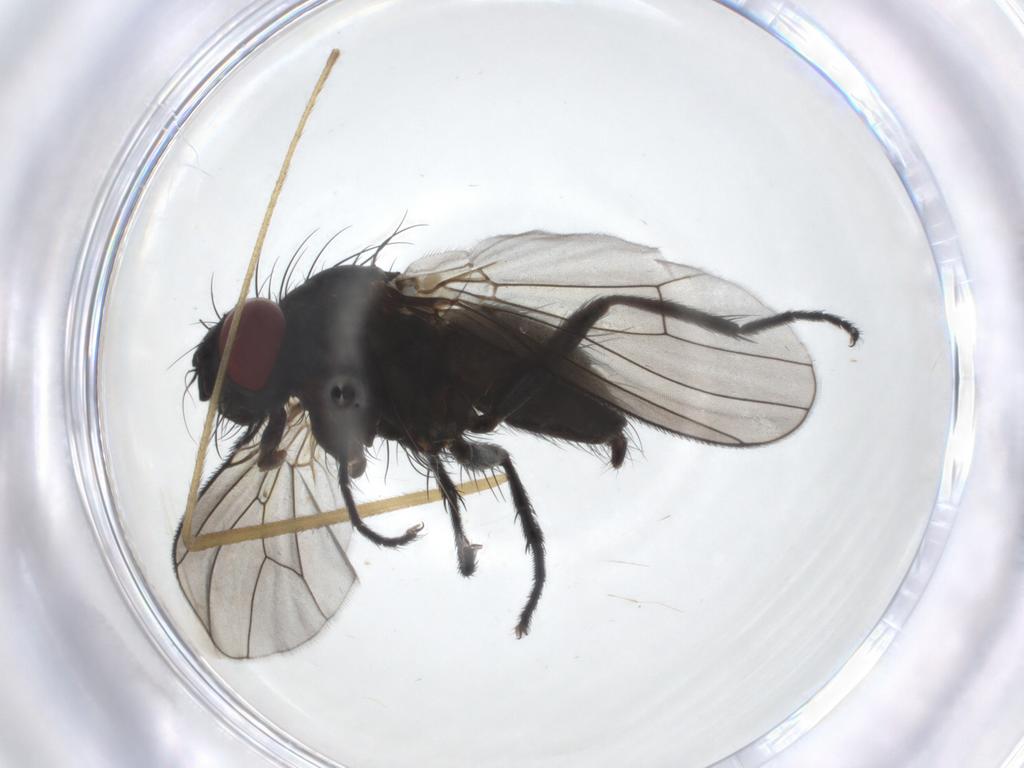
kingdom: Animalia
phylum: Arthropoda
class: Insecta
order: Diptera
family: Muscidae
